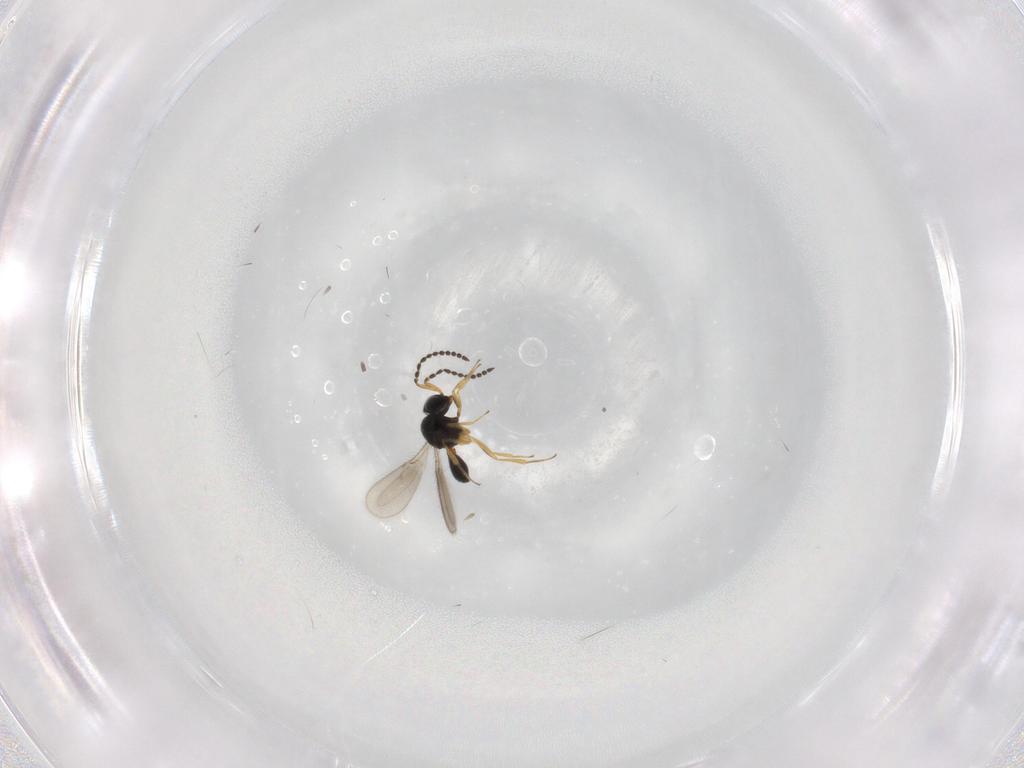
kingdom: Animalia
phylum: Arthropoda
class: Insecta
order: Hymenoptera
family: Scelionidae
